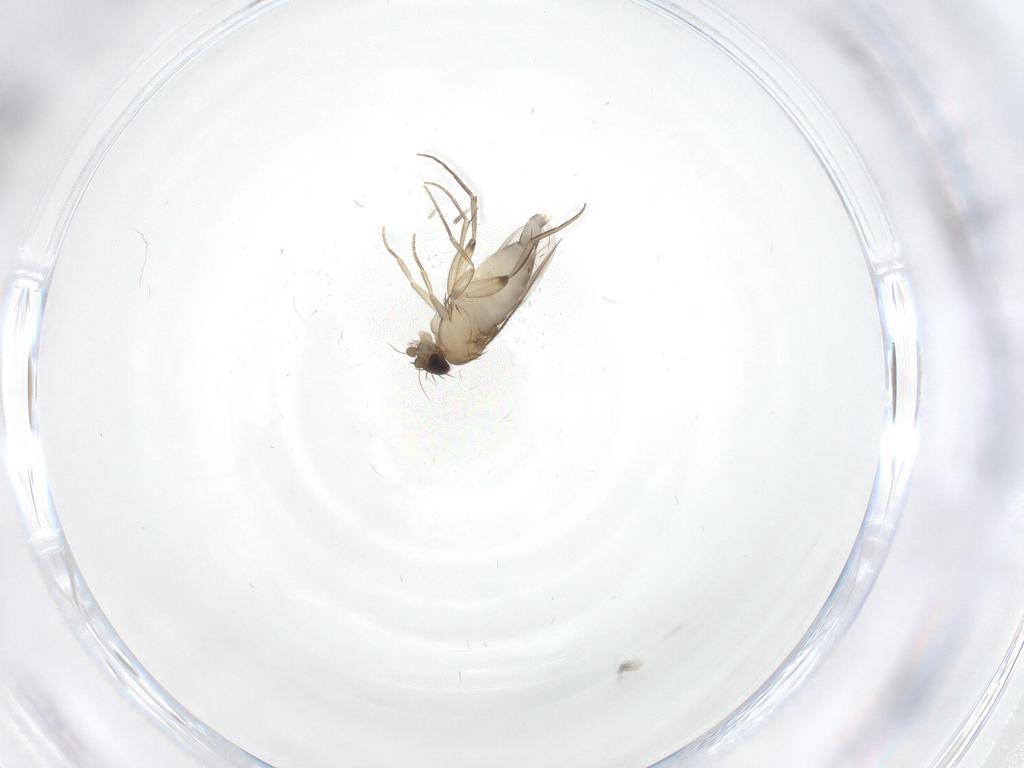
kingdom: Animalia
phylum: Arthropoda
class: Insecta
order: Diptera
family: Phoridae
